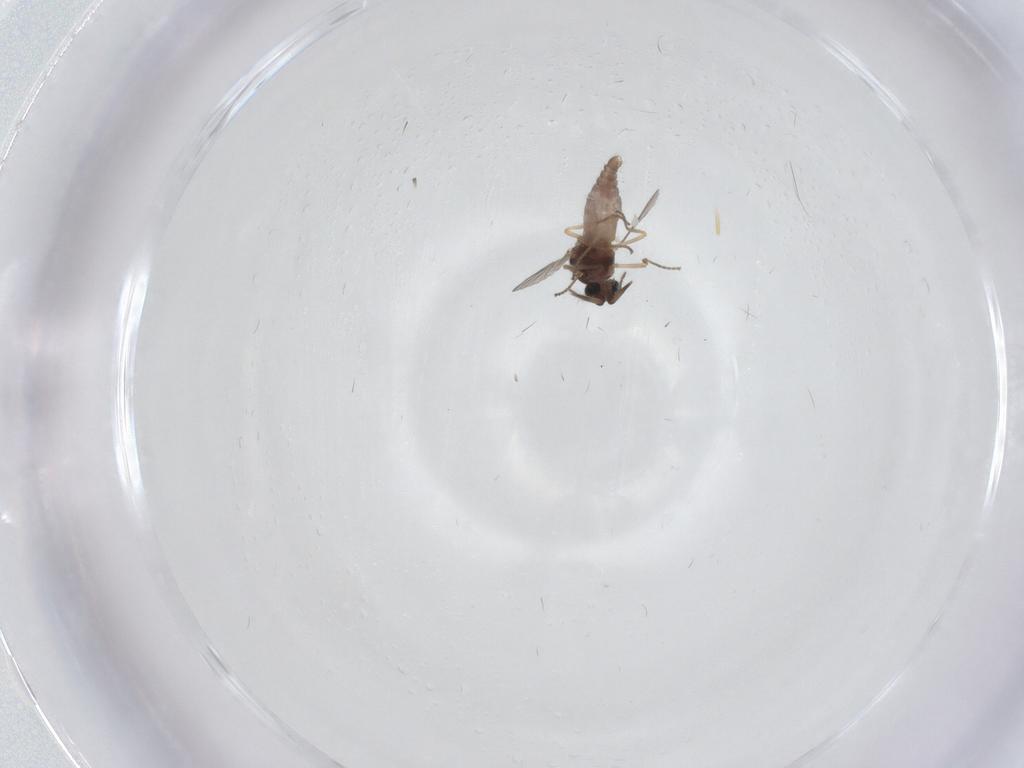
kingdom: Animalia
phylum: Arthropoda
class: Insecta
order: Diptera
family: Ceratopogonidae
